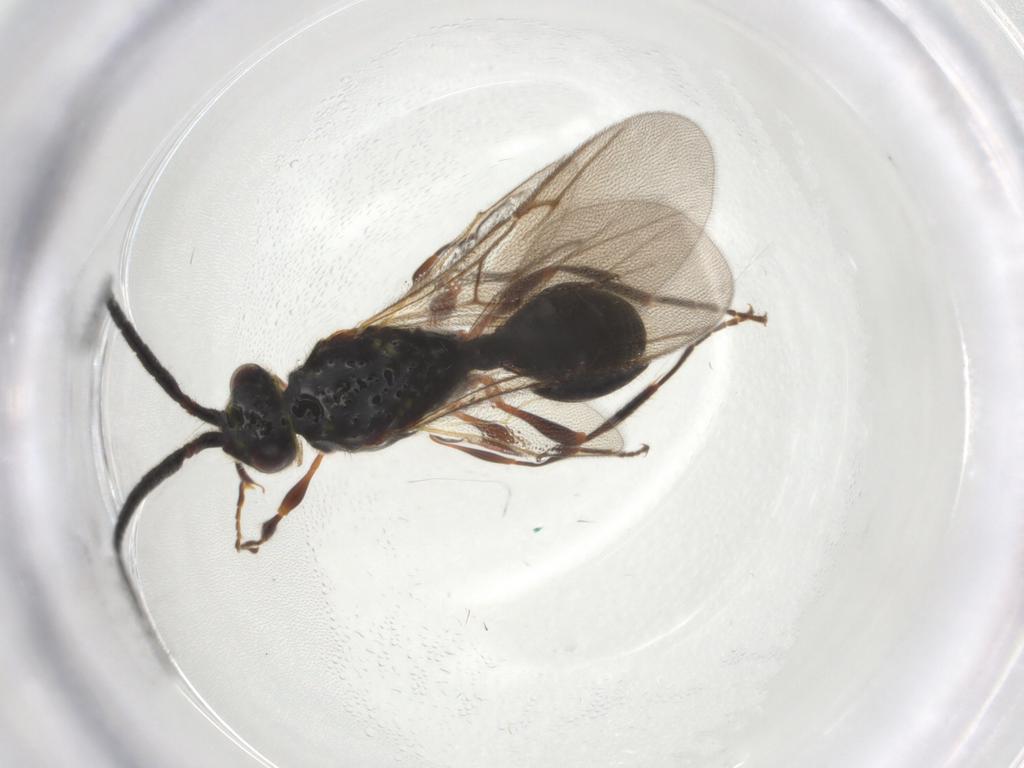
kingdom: Animalia
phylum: Arthropoda
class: Insecta
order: Hymenoptera
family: Diapriidae
